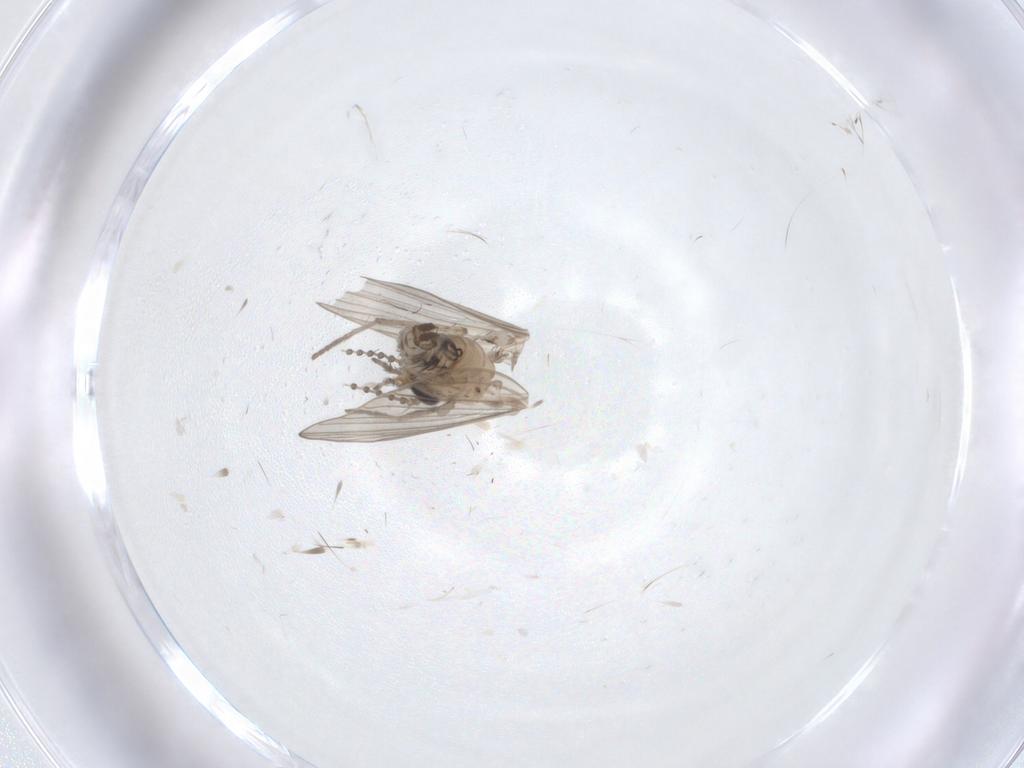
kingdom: Animalia
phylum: Arthropoda
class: Insecta
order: Diptera
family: Psychodidae
